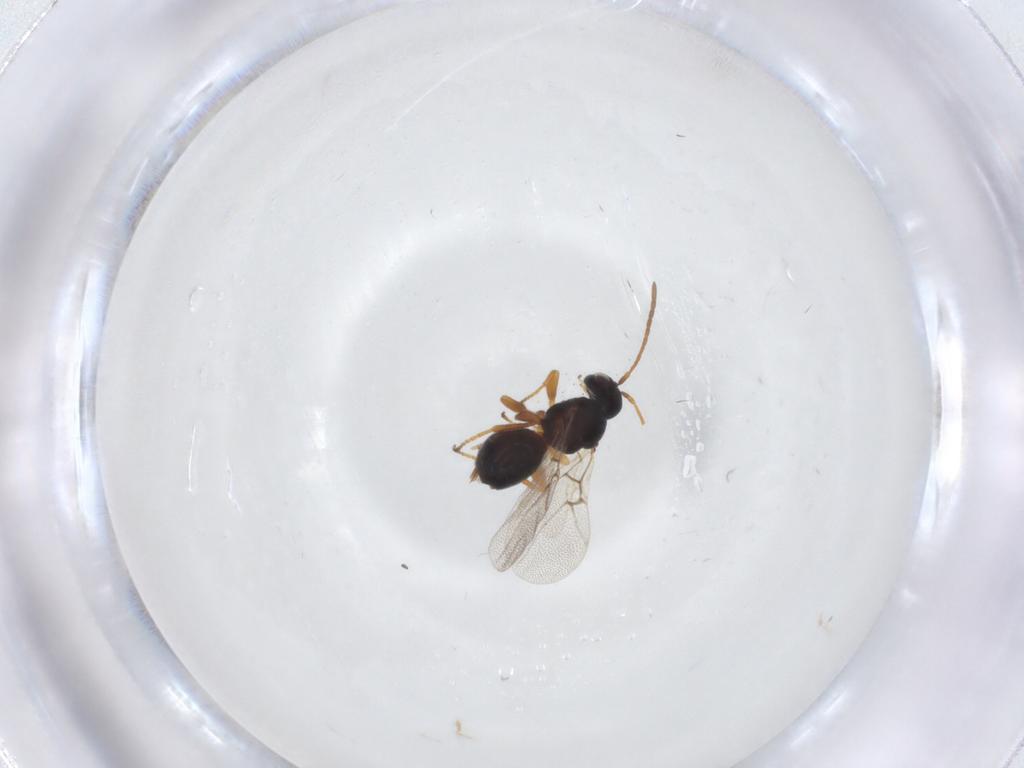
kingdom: Animalia
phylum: Arthropoda
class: Insecta
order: Hymenoptera
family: Cynipidae
